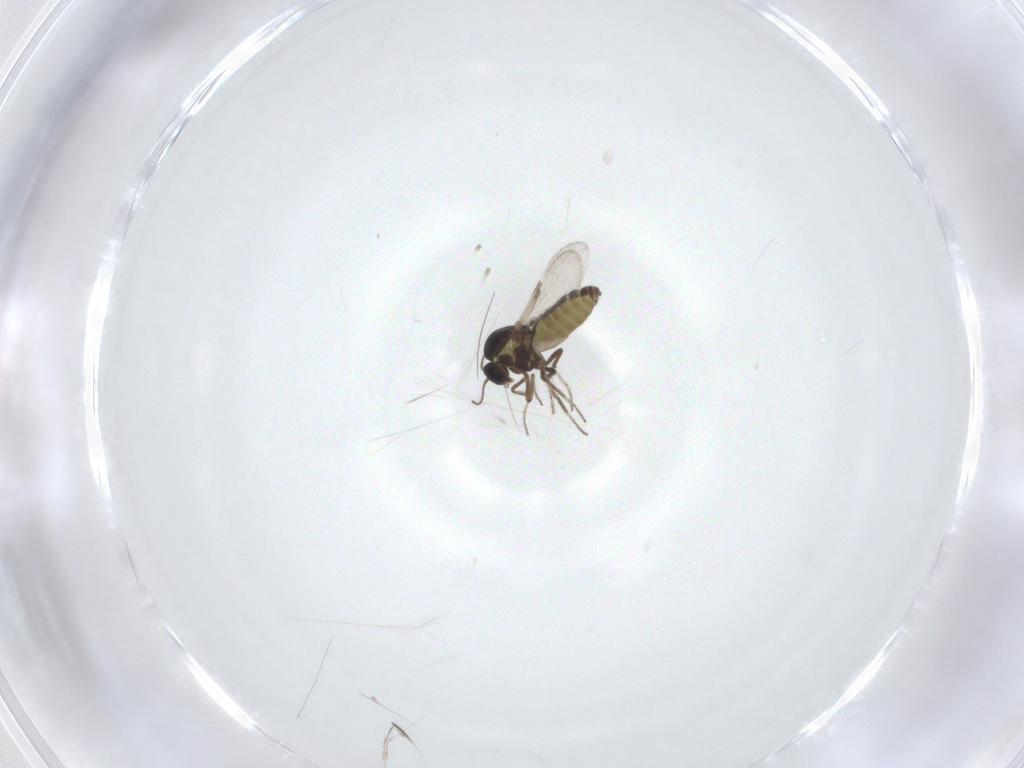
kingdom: Animalia
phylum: Arthropoda
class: Insecta
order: Diptera
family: Ceratopogonidae
